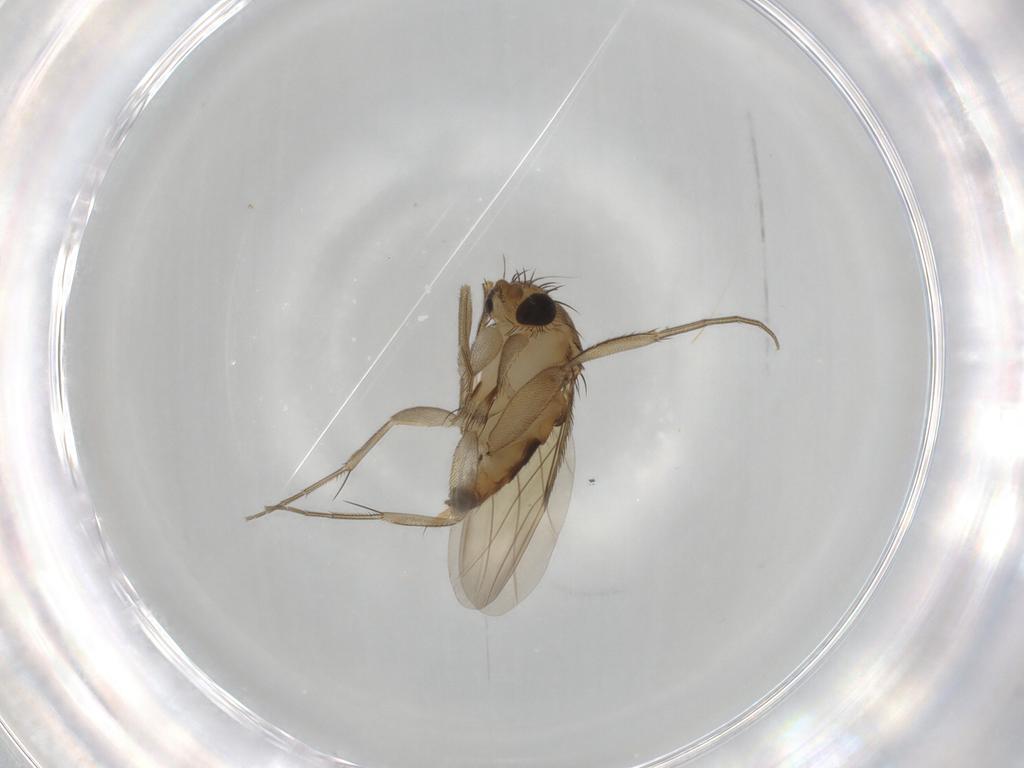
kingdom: Animalia
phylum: Arthropoda
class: Insecta
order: Diptera
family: Phoridae
